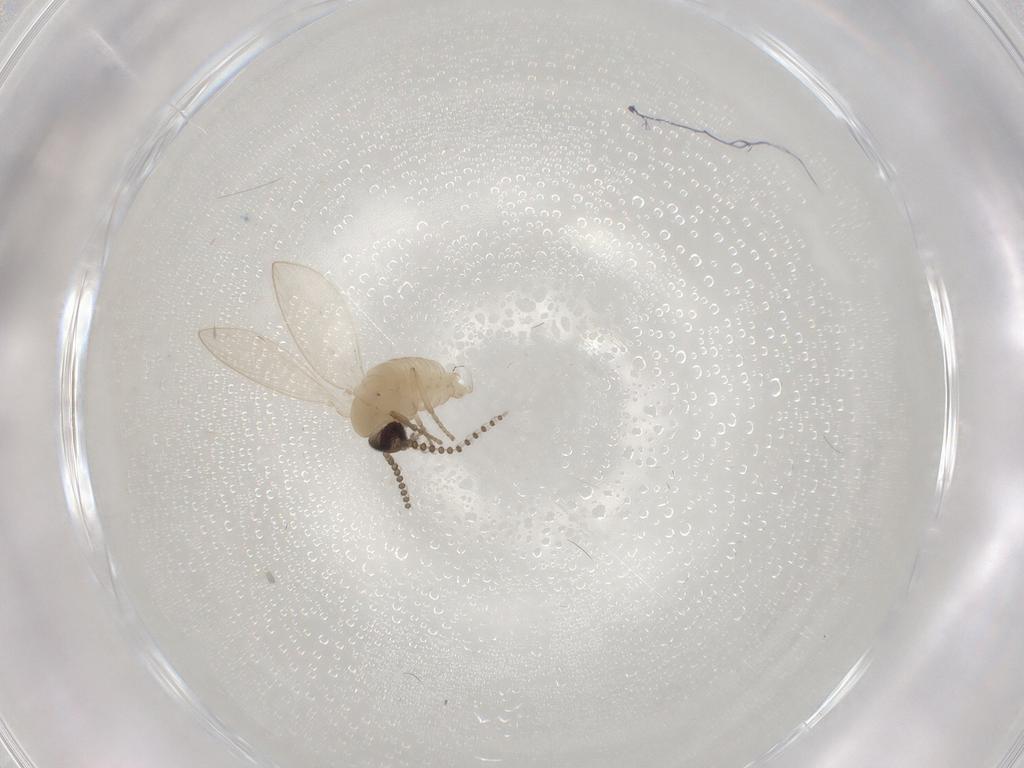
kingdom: Animalia
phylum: Arthropoda
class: Insecta
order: Diptera
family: Psychodidae
